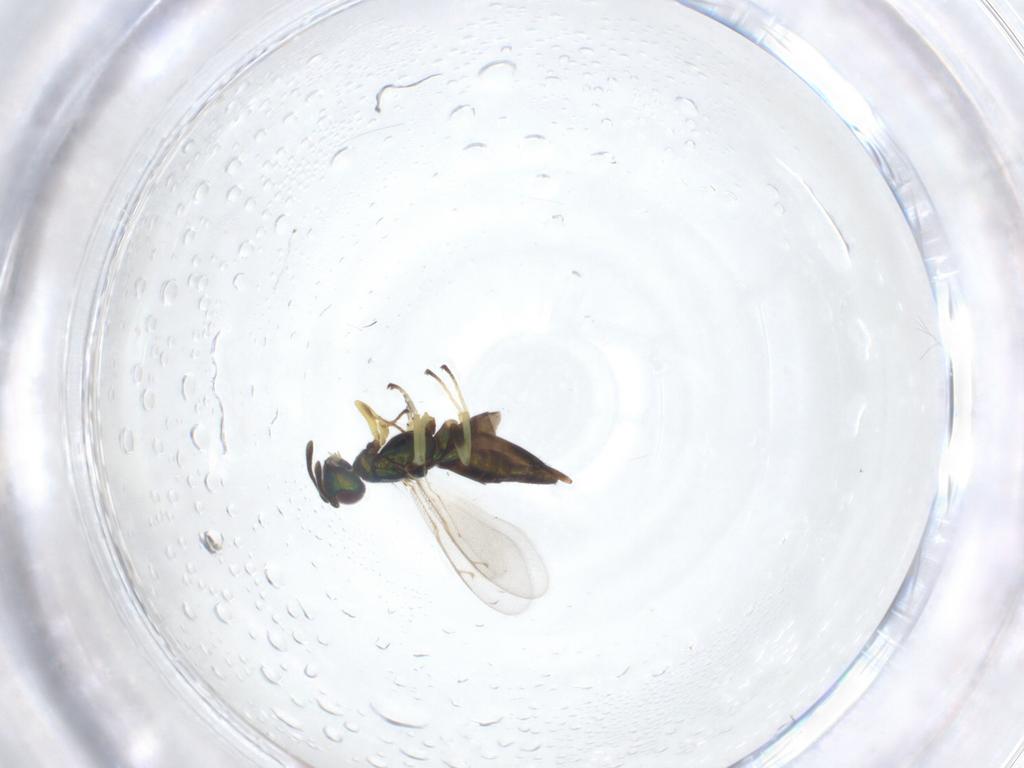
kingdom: Animalia
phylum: Arthropoda
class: Insecta
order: Hymenoptera
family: Eupelmidae
